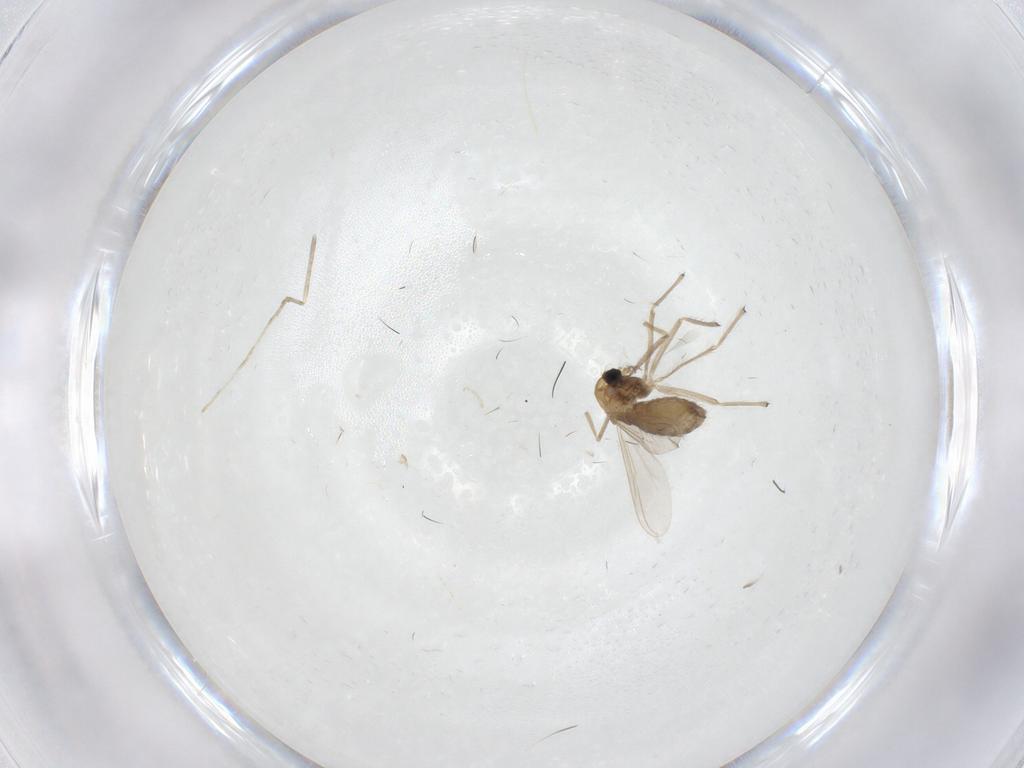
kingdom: Animalia
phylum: Arthropoda
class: Insecta
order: Diptera
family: Chironomidae
